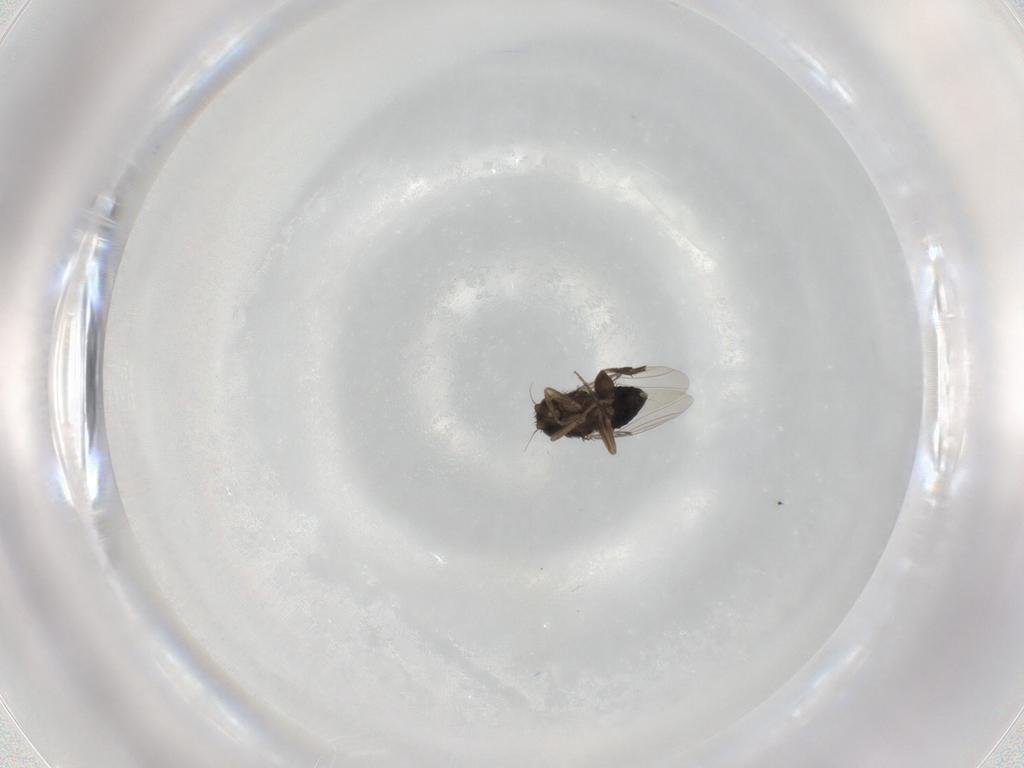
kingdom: Animalia
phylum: Arthropoda
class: Insecta
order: Diptera
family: Phoridae
